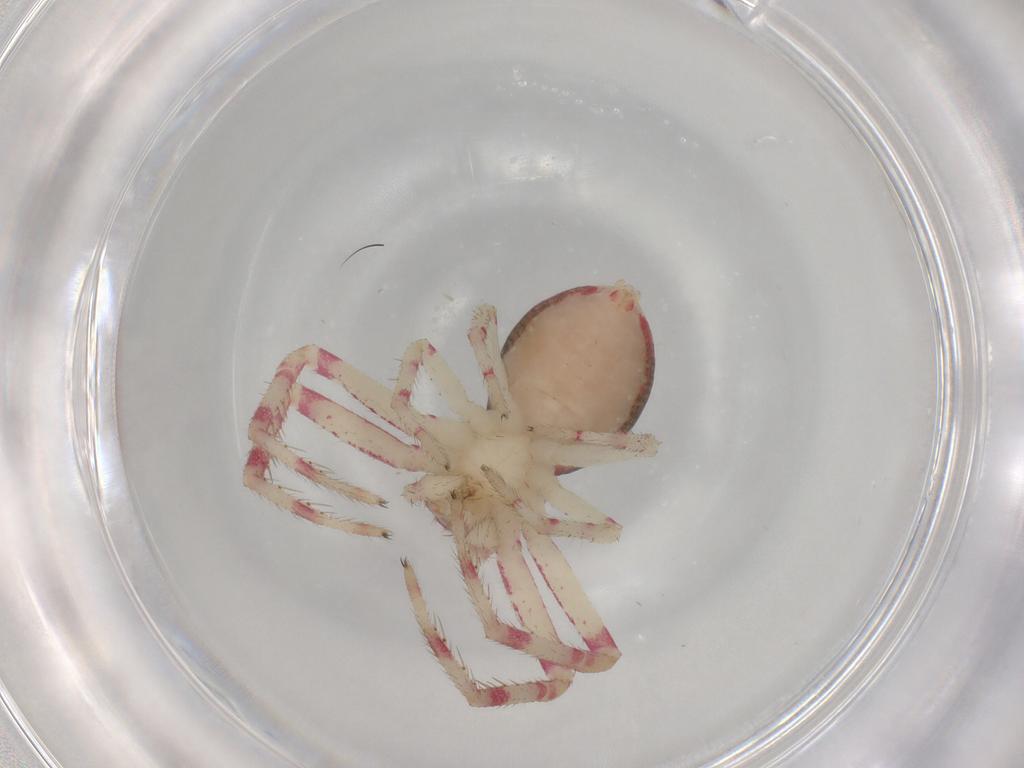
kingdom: Animalia
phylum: Arthropoda
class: Arachnida
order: Araneae
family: Thomisidae
